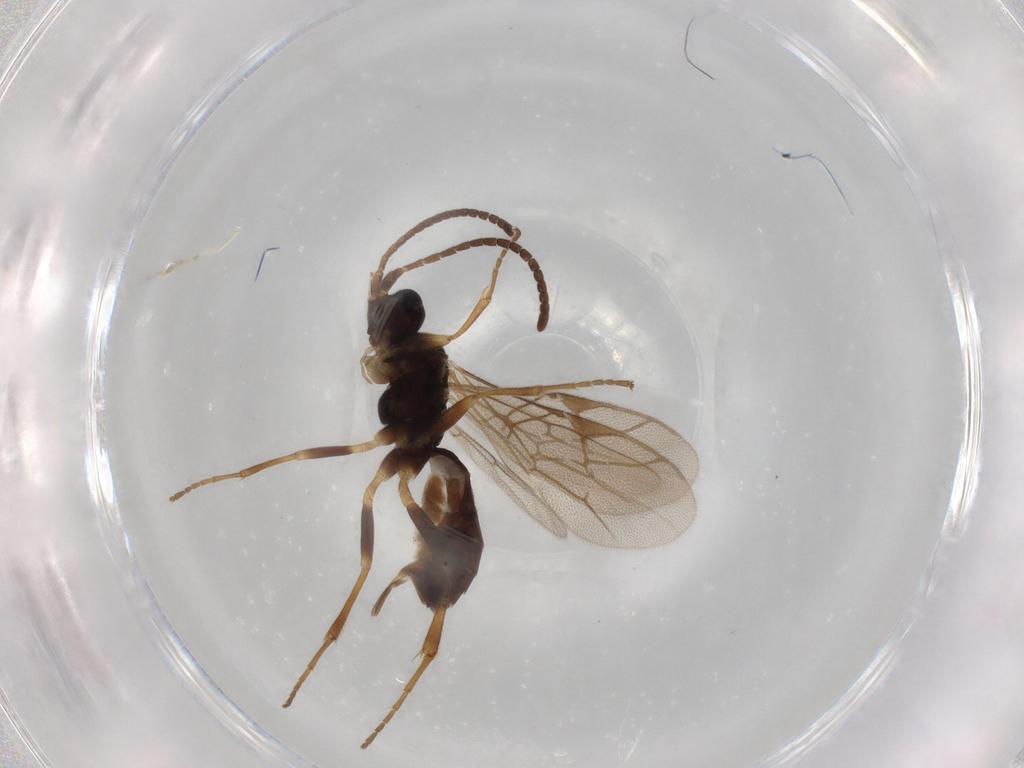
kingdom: Animalia
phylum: Arthropoda
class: Insecta
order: Hymenoptera
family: Ichneumonidae
